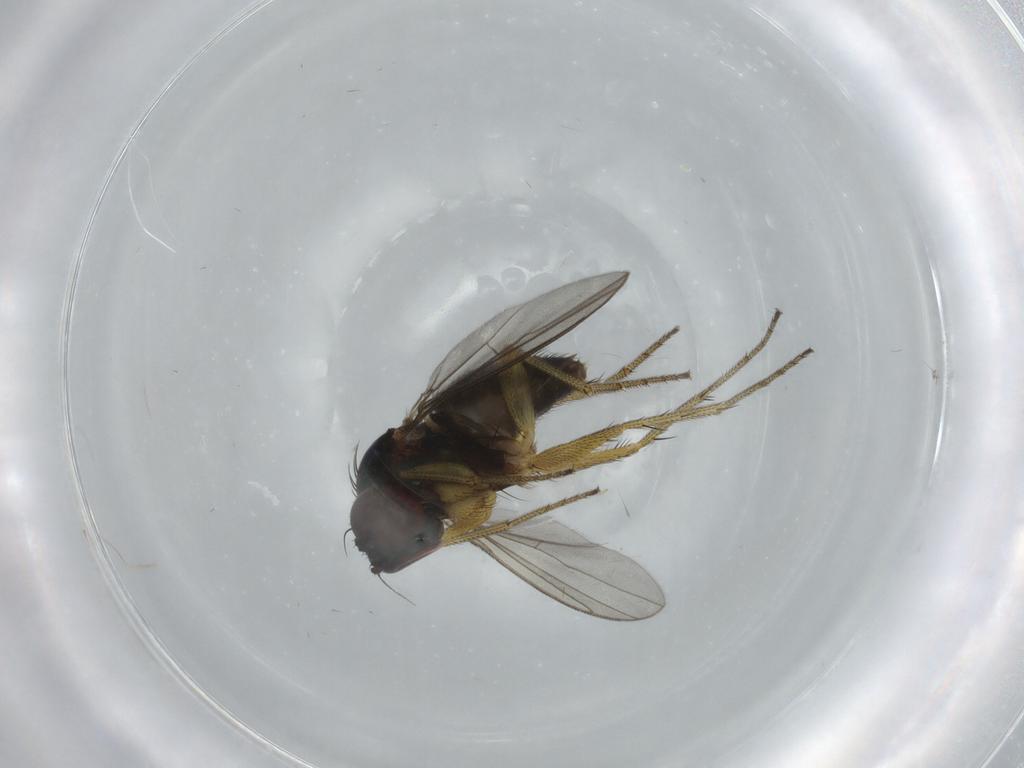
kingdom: Animalia
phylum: Arthropoda
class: Insecta
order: Diptera
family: Dolichopodidae
